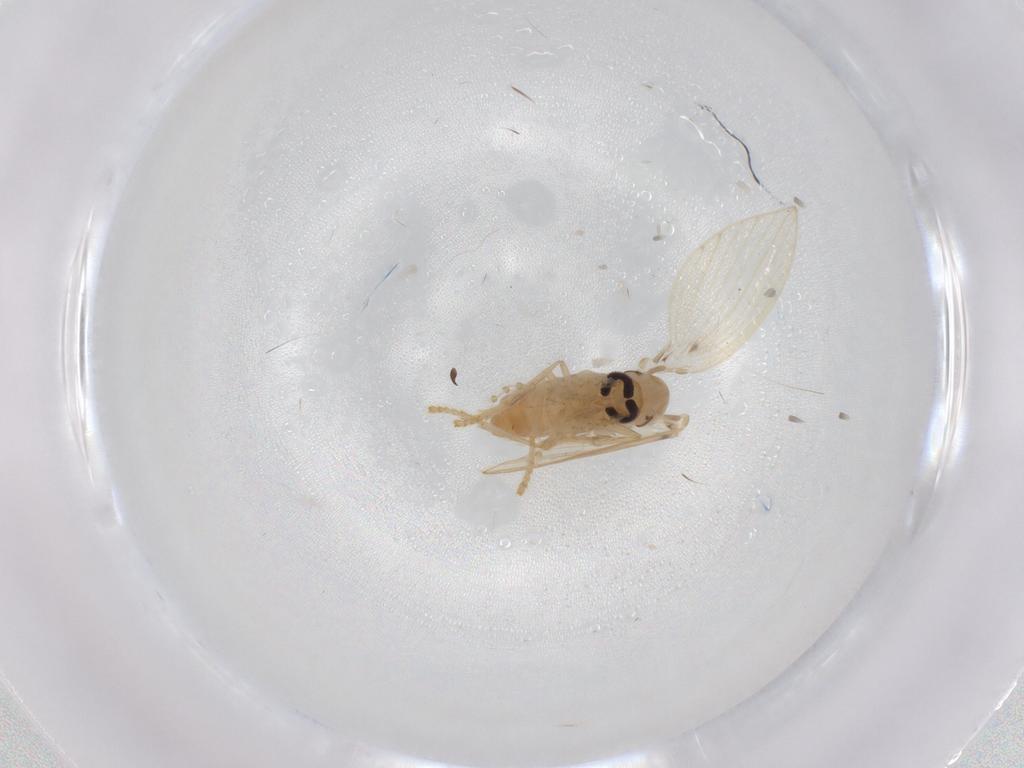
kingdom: Animalia
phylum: Arthropoda
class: Insecta
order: Diptera
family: Psychodidae
